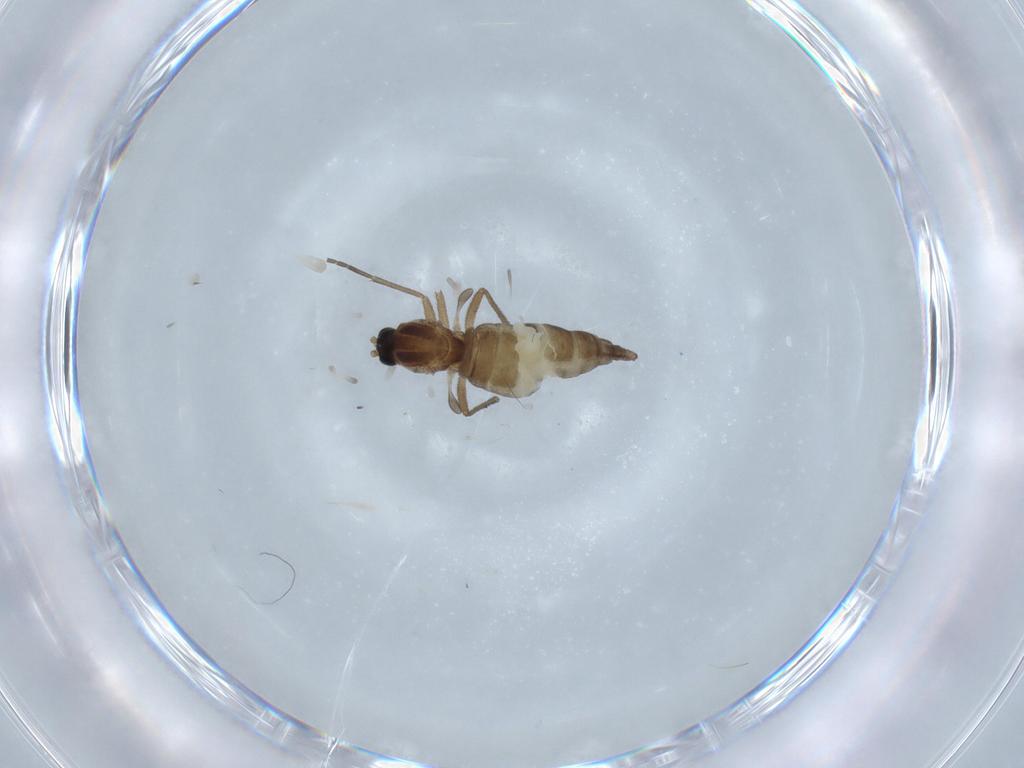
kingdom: Animalia
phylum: Arthropoda
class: Insecta
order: Diptera
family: Sciaridae
